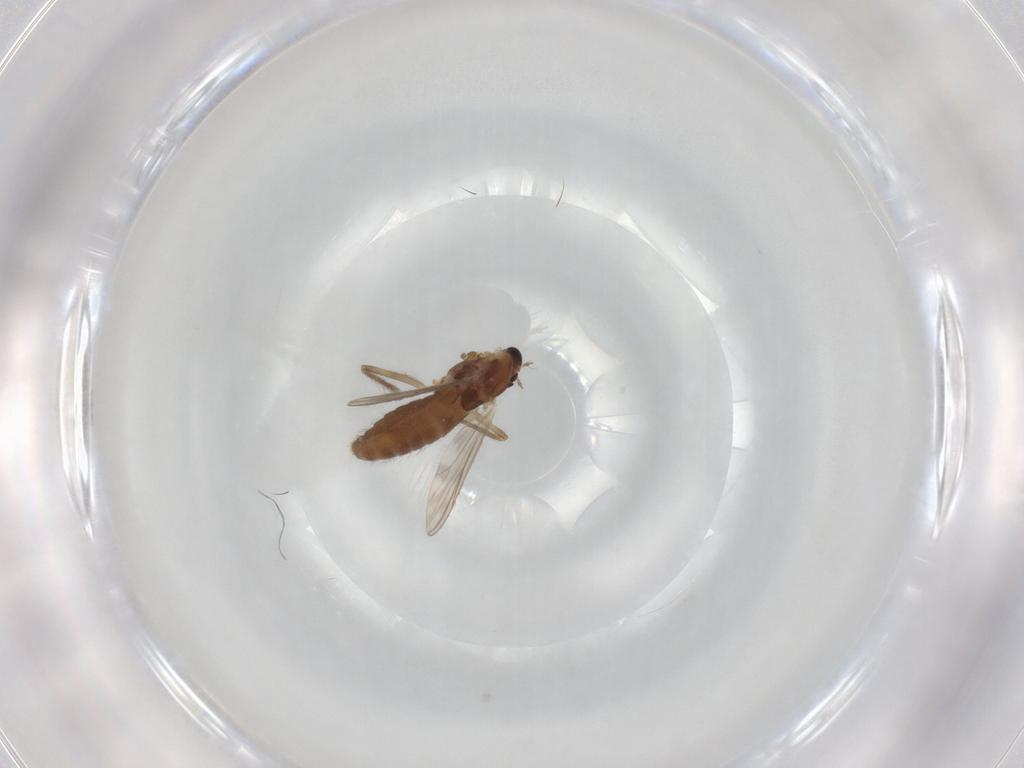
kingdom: Animalia
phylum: Arthropoda
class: Insecta
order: Diptera
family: Chironomidae
